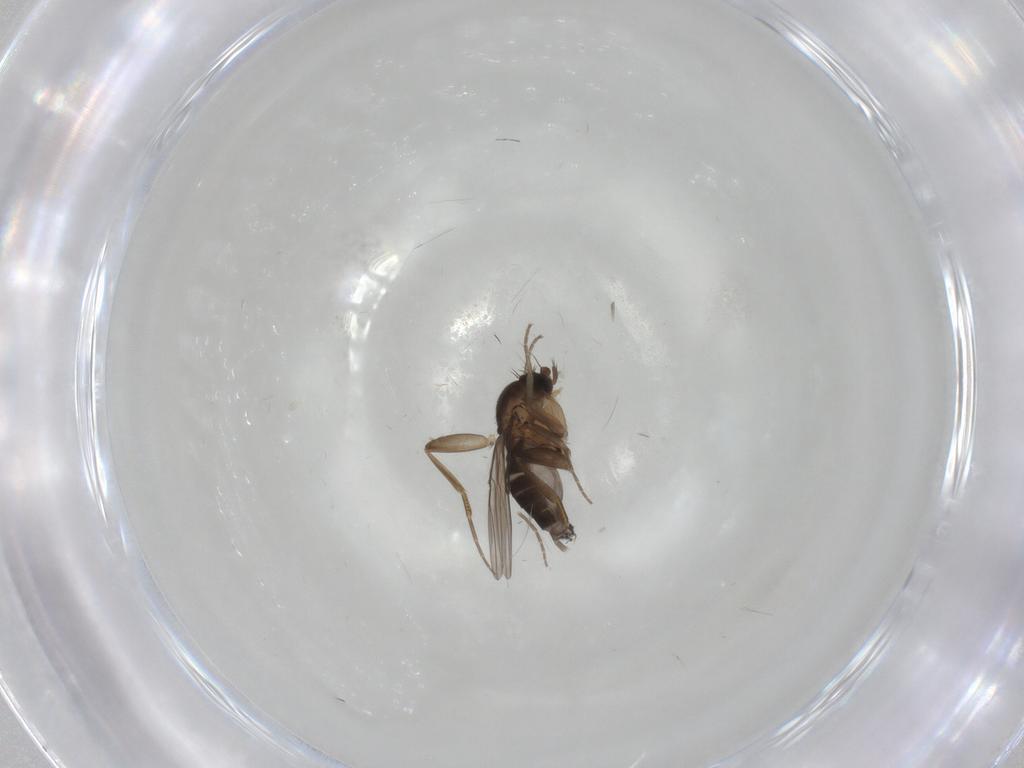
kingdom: Animalia
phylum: Arthropoda
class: Insecta
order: Diptera
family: Phoridae
